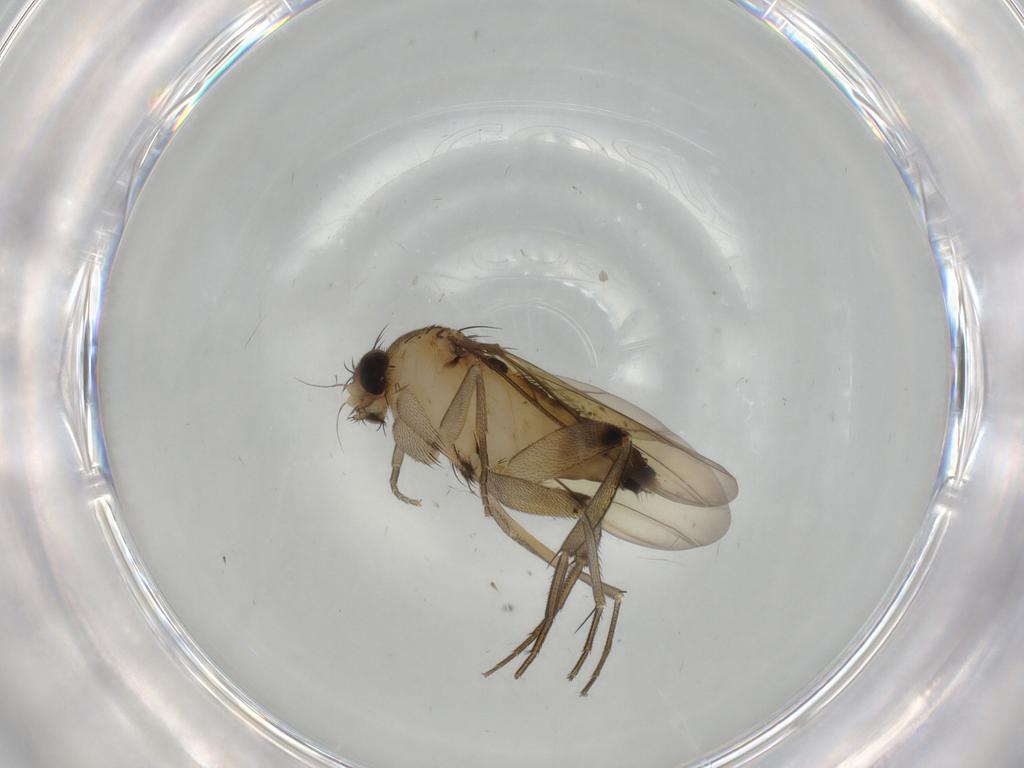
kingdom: Animalia
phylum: Arthropoda
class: Insecta
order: Diptera
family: Phoridae
